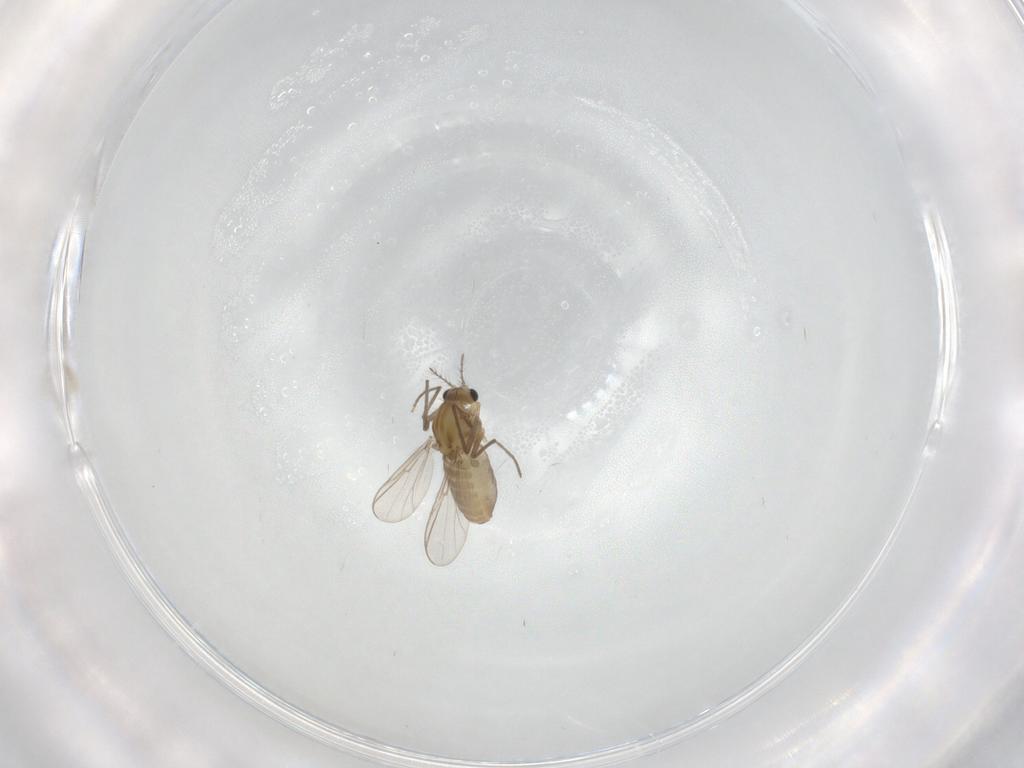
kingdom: Animalia
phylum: Arthropoda
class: Insecta
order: Diptera
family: Chironomidae
